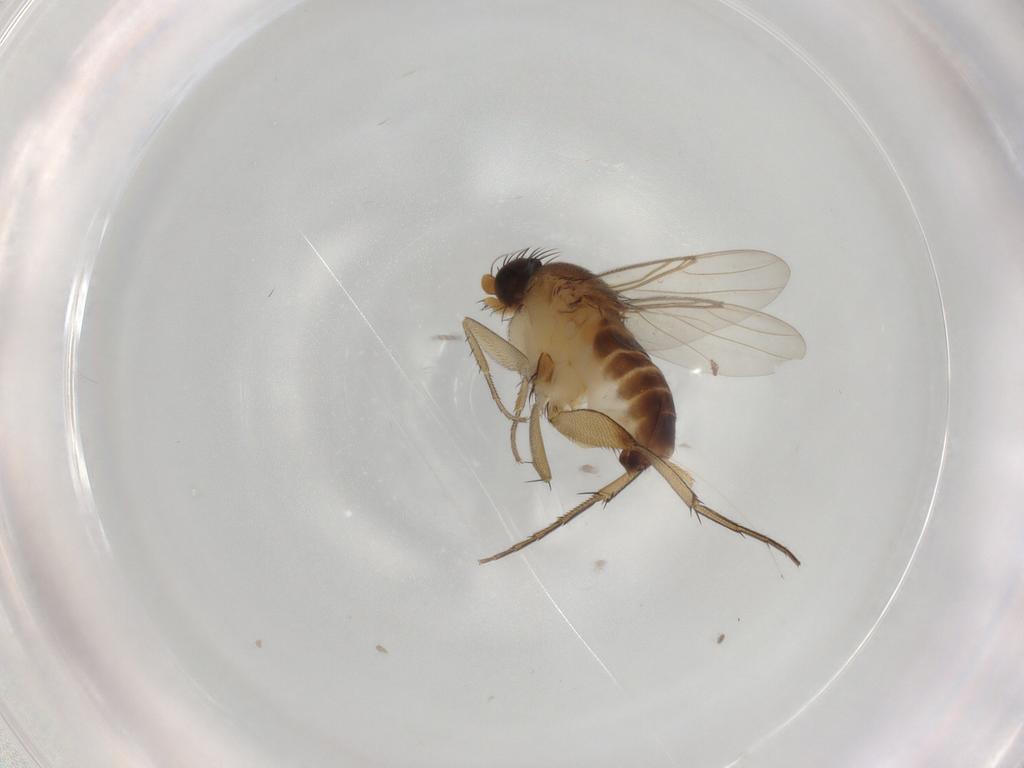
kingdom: Animalia
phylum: Arthropoda
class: Insecta
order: Diptera
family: Phoridae
